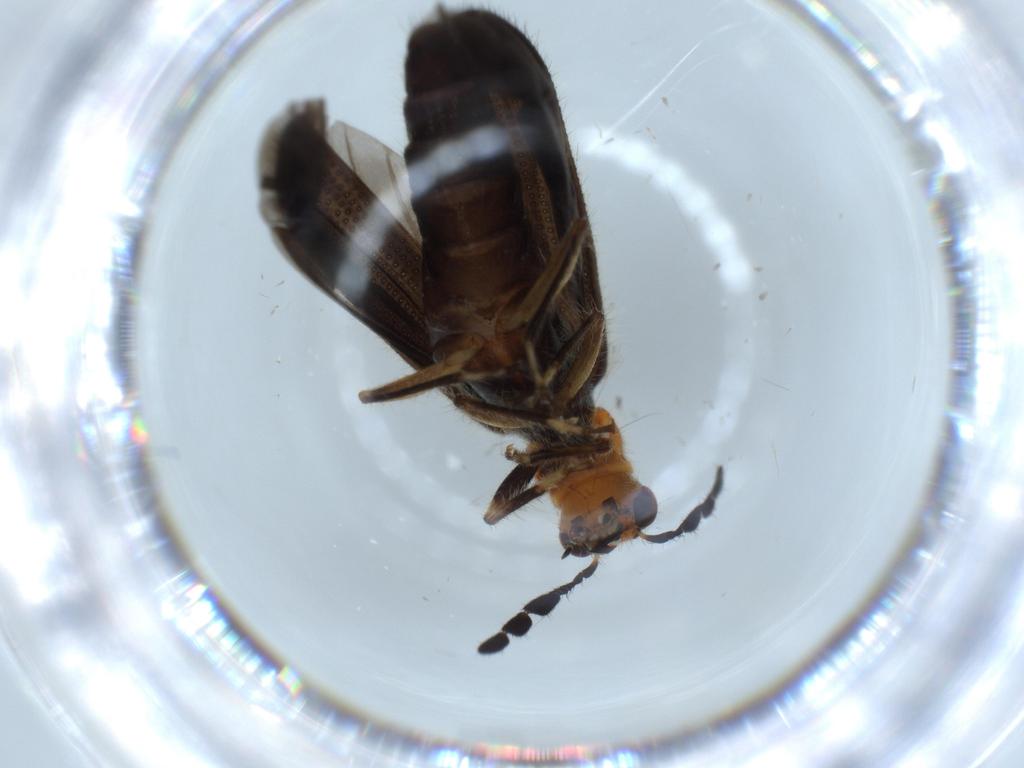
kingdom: Animalia
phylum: Arthropoda
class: Insecta
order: Coleoptera
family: Cleridae
